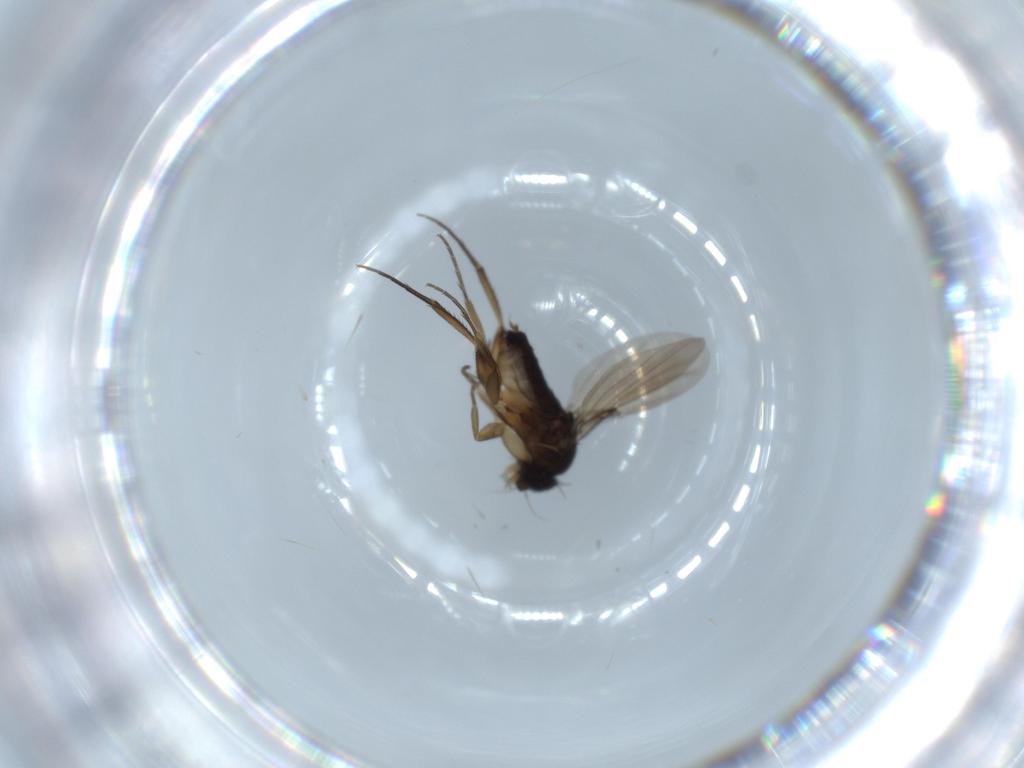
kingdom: Animalia
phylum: Arthropoda
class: Insecta
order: Diptera
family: Phoridae
